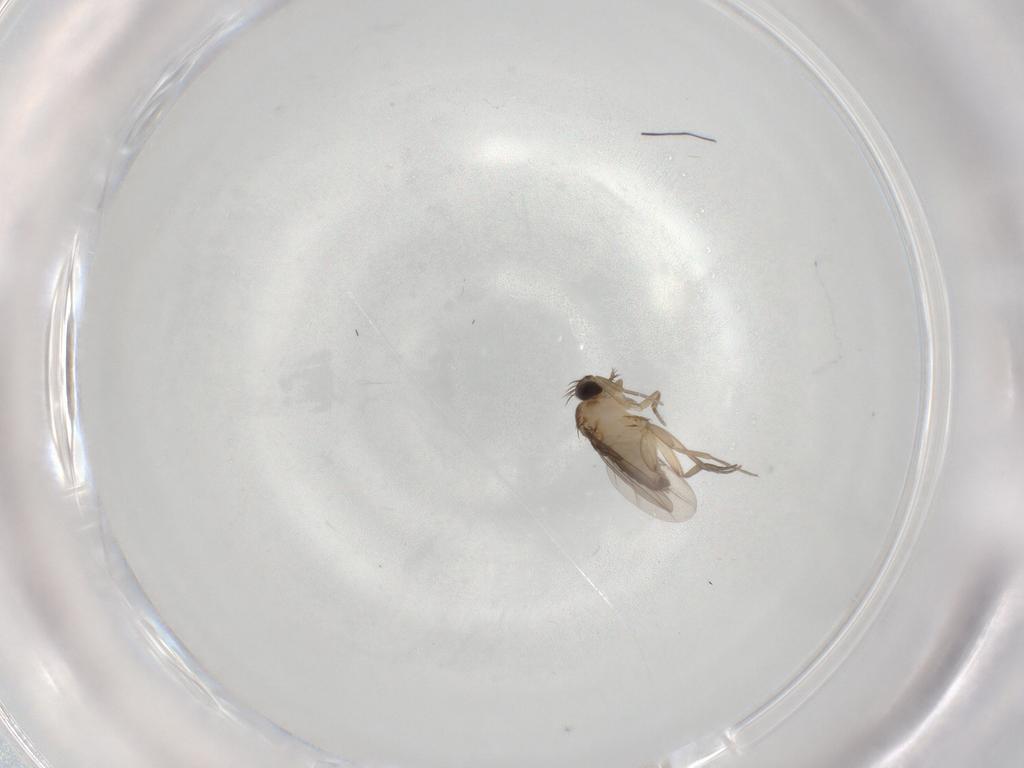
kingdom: Animalia
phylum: Arthropoda
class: Insecta
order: Diptera
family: Phoridae
